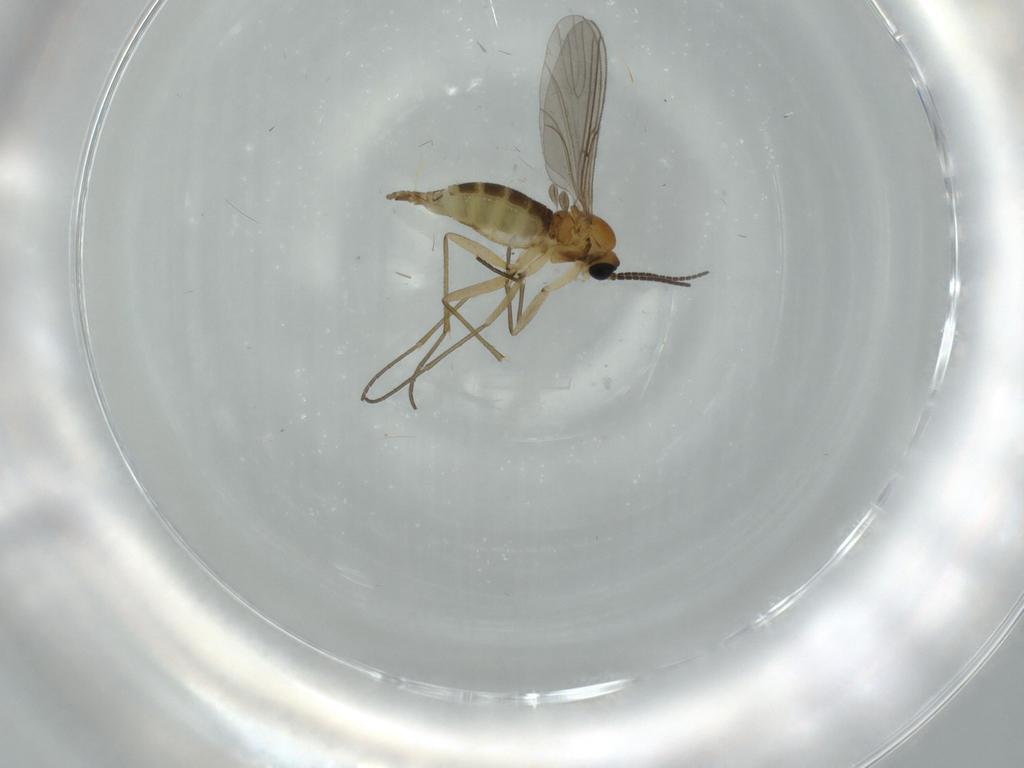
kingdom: Animalia
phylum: Arthropoda
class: Insecta
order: Diptera
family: Sciaridae
